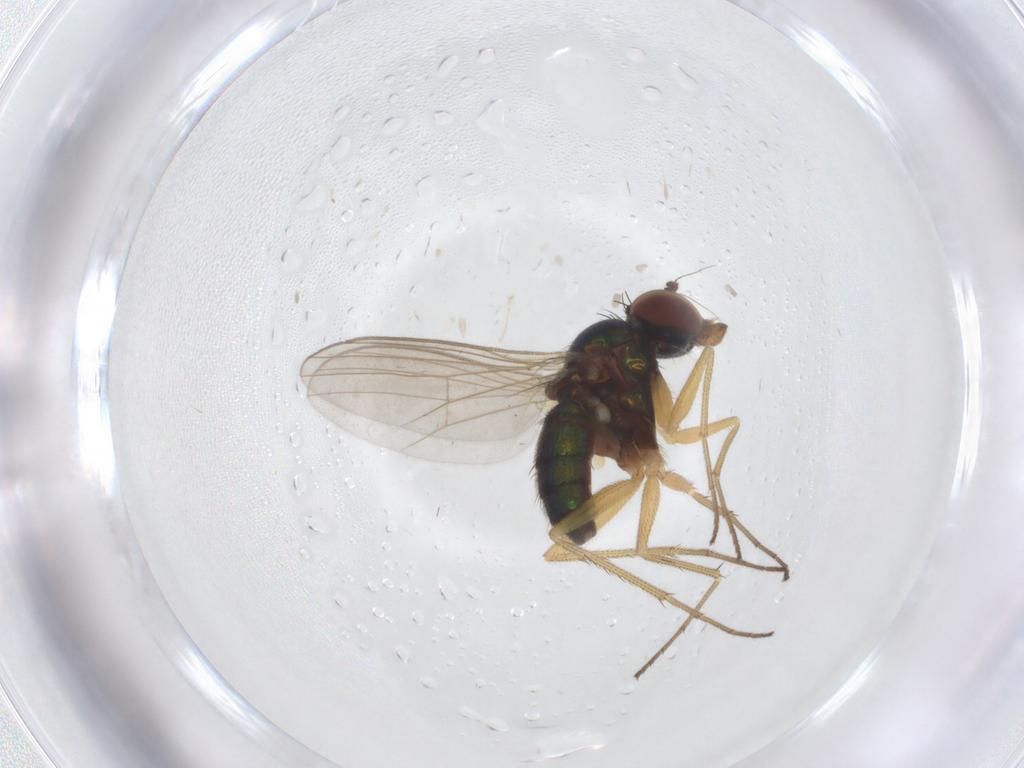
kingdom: Animalia
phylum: Arthropoda
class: Insecta
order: Diptera
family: Dolichopodidae
